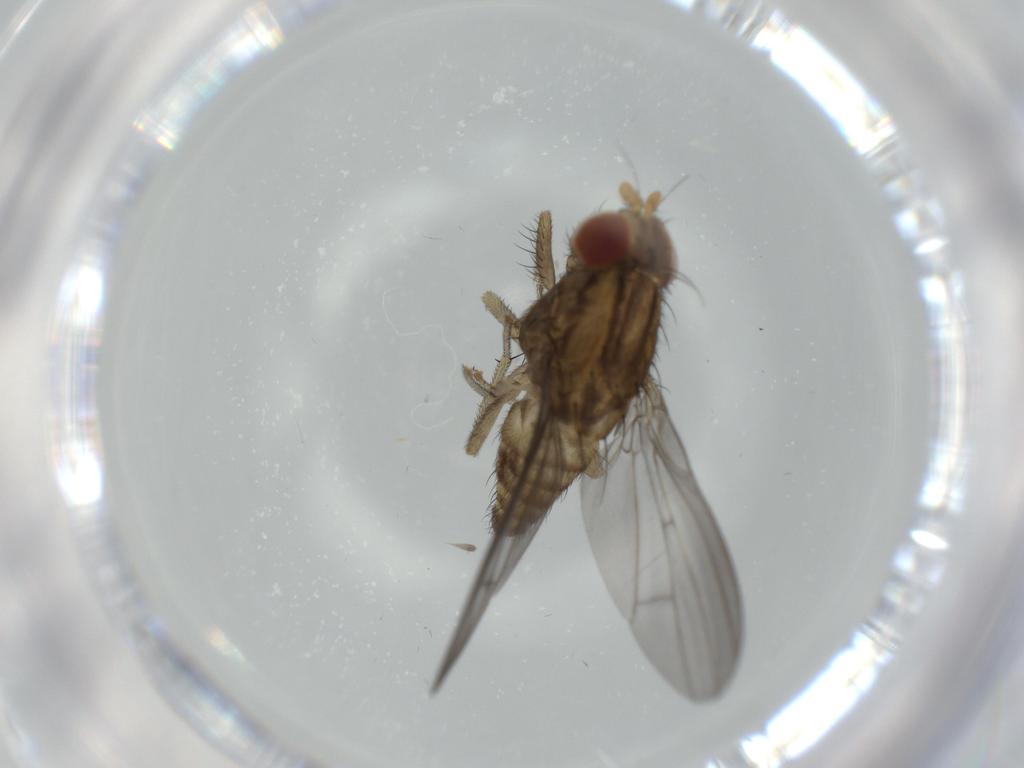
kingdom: Animalia
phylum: Arthropoda
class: Insecta
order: Diptera
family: Lauxaniidae
